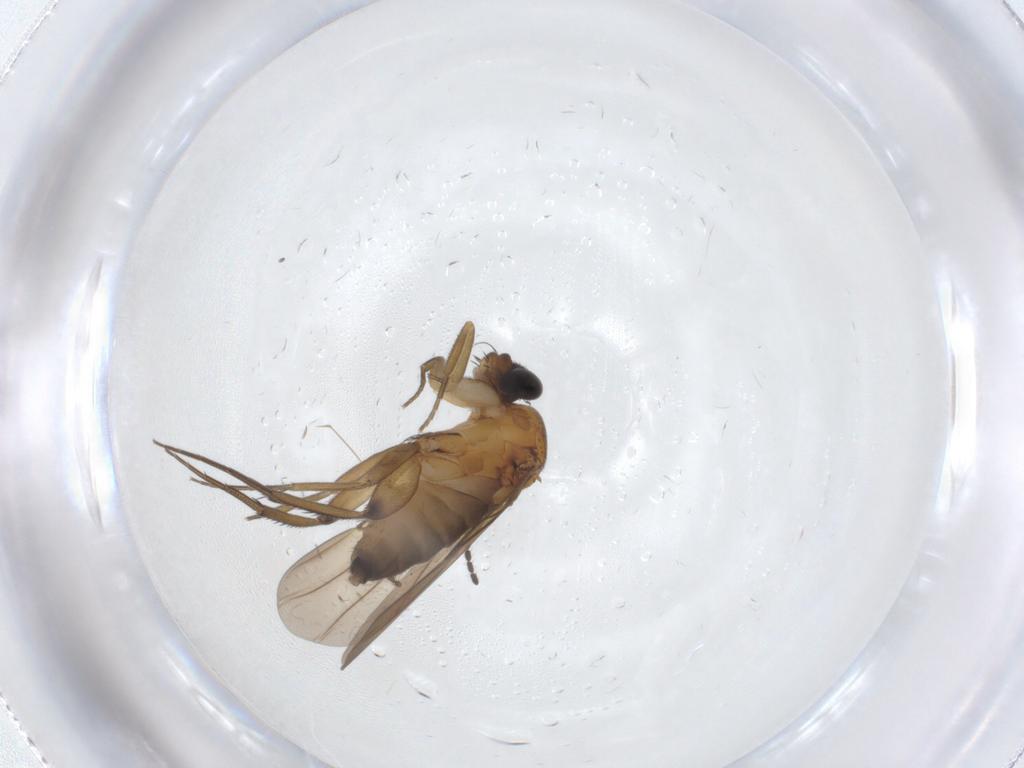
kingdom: Animalia
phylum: Arthropoda
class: Insecta
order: Diptera
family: Phoridae
